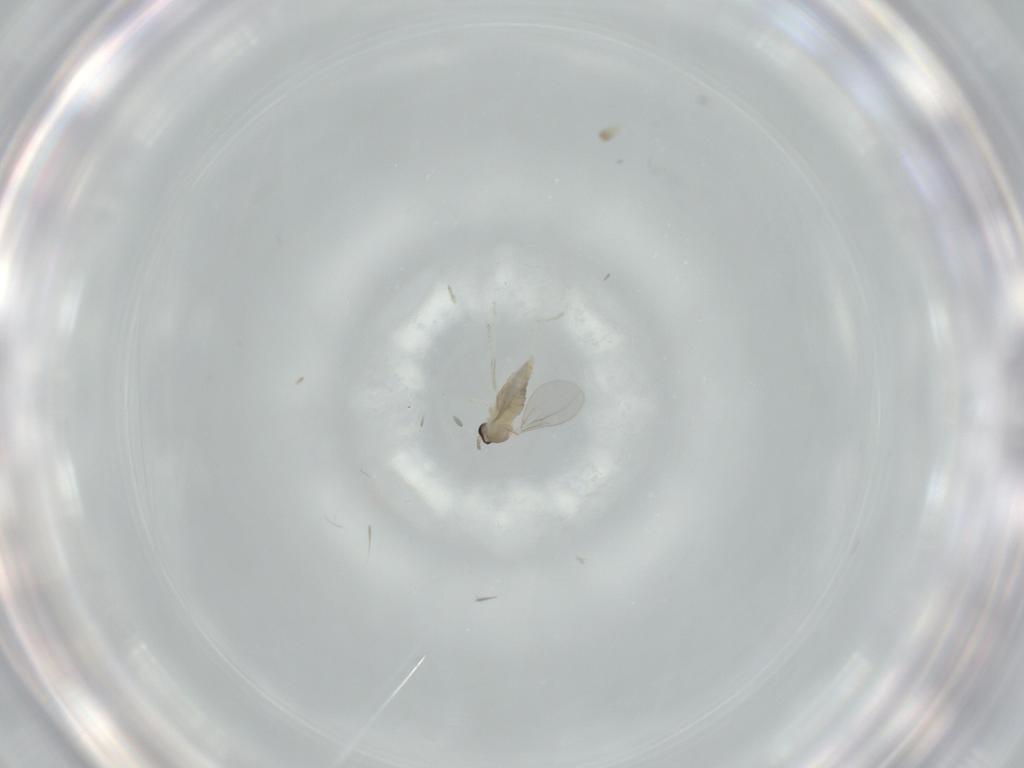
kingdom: Animalia
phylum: Arthropoda
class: Insecta
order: Diptera
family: Cecidomyiidae
